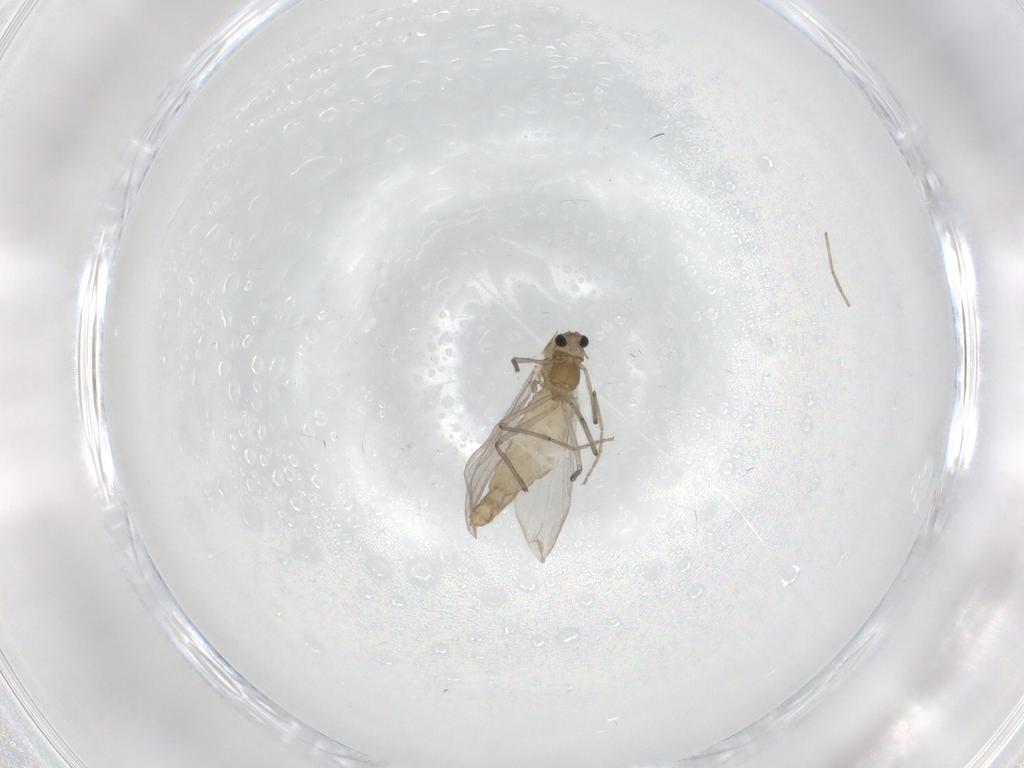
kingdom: Animalia
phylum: Arthropoda
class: Insecta
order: Diptera
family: Chironomidae
